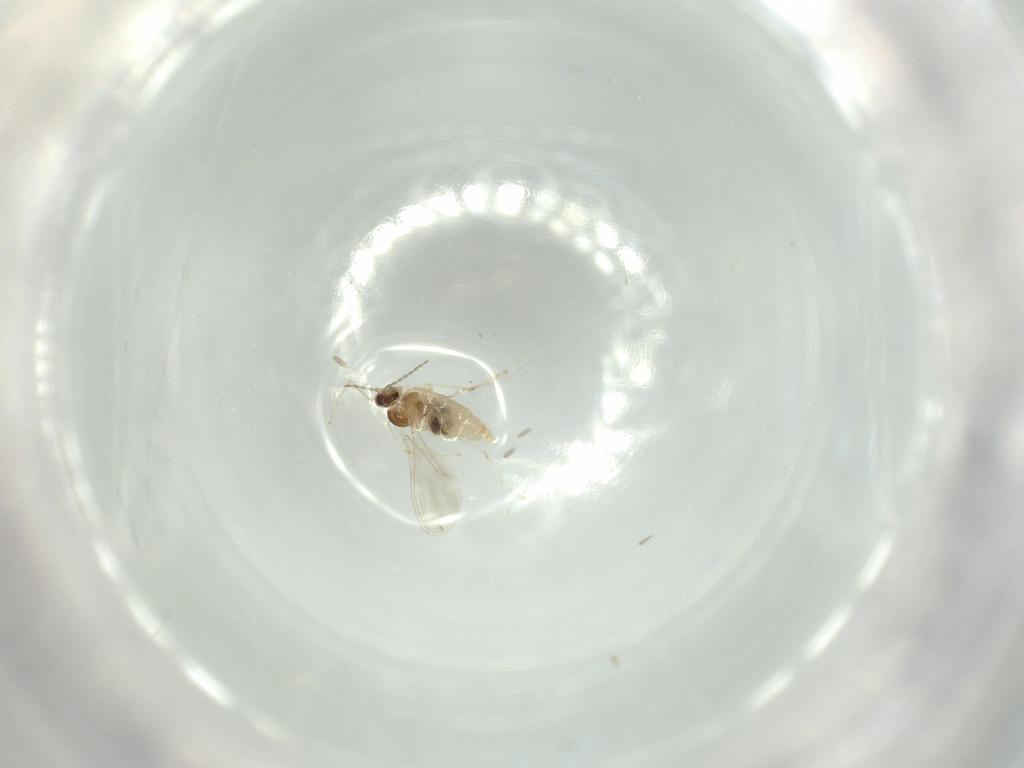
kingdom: Animalia
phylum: Arthropoda
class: Insecta
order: Diptera
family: Cecidomyiidae
